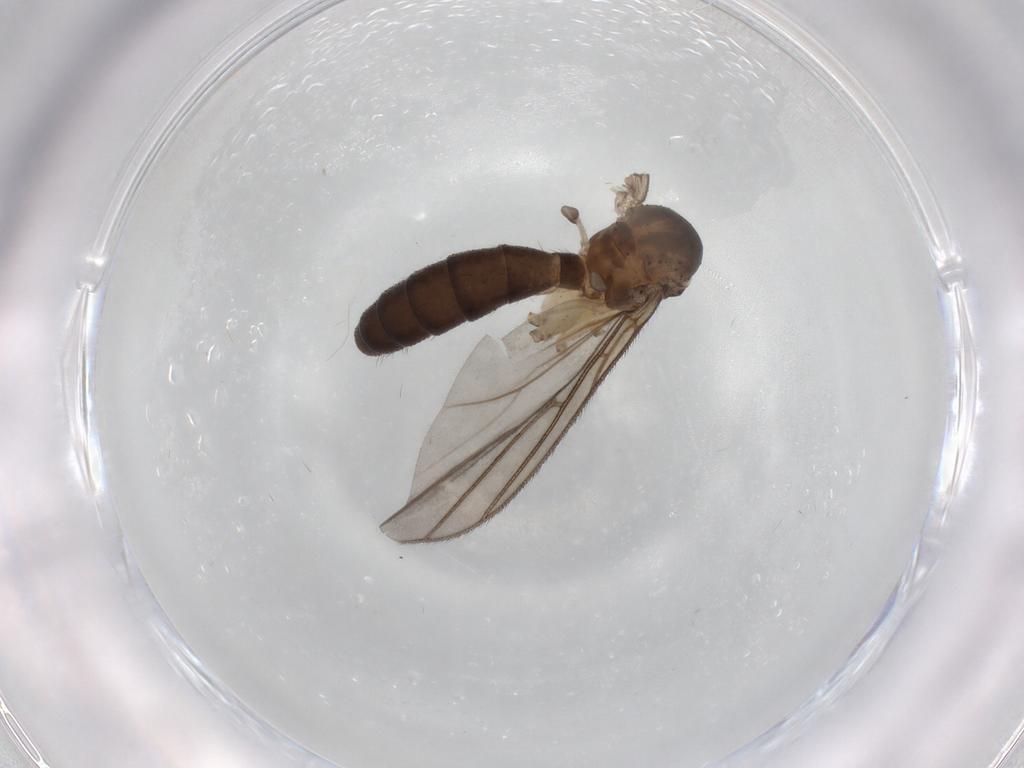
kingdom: Animalia
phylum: Arthropoda
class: Insecta
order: Diptera
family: Mycetophilidae
